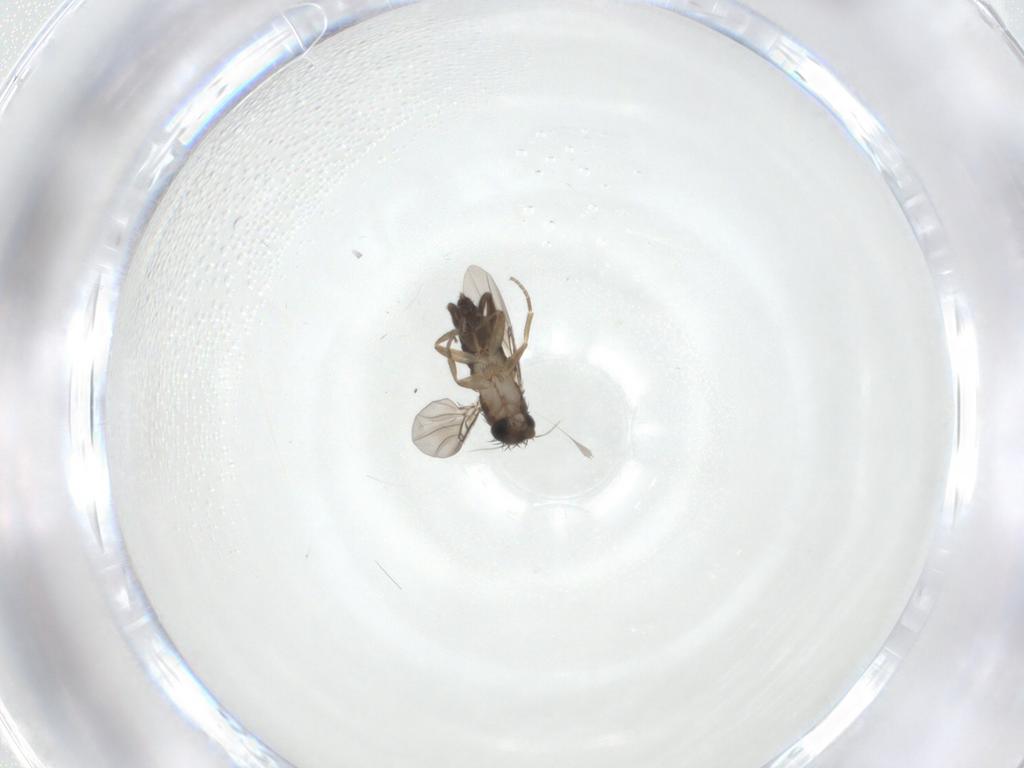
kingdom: Animalia
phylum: Arthropoda
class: Insecta
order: Diptera
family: Phoridae
